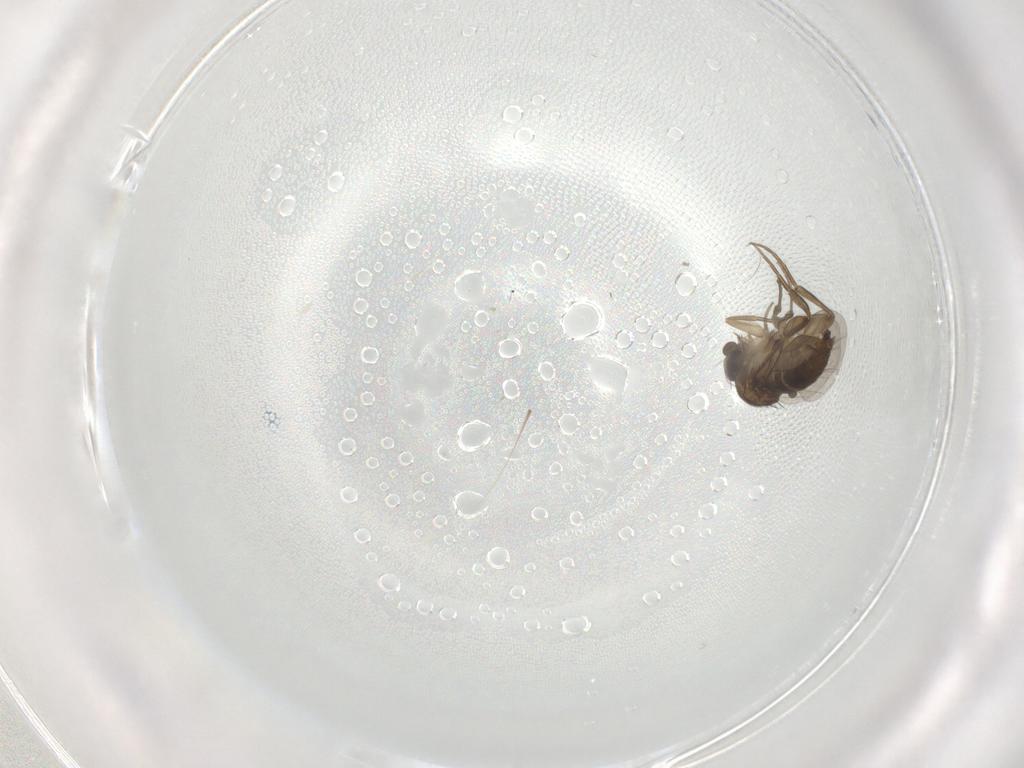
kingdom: Animalia
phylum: Arthropoda
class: Insecta
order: Diptera
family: Phoridae
